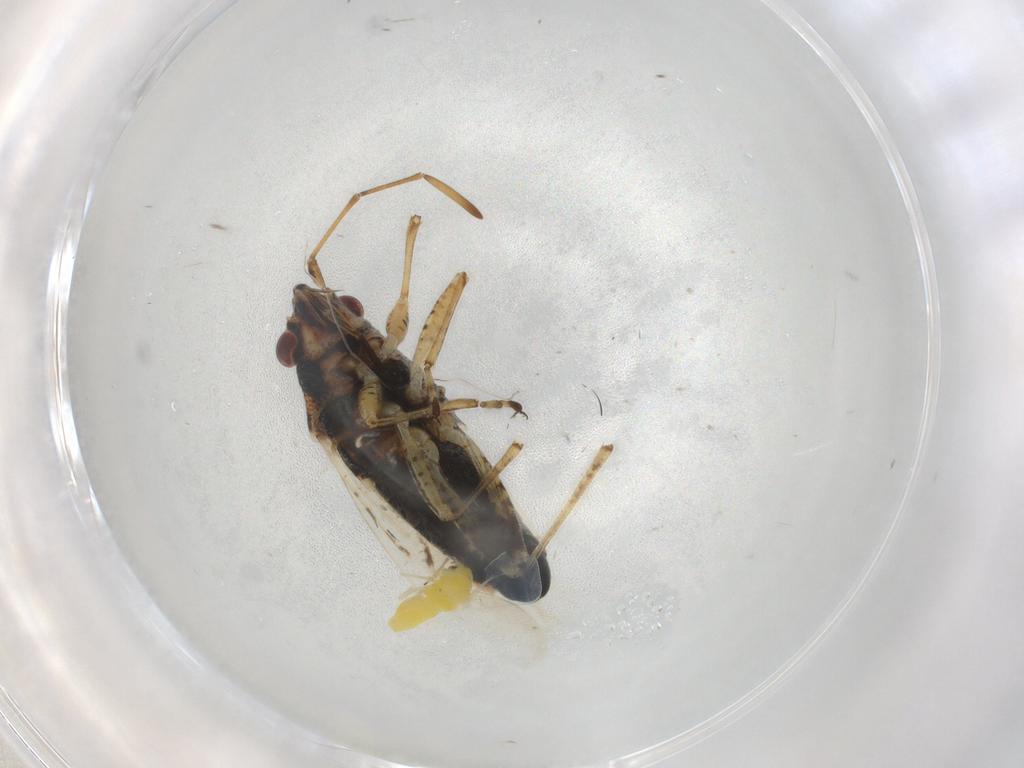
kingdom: Animalia
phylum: Arthropoda
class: Insecta
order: Hemiptera
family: Lygaeidae
